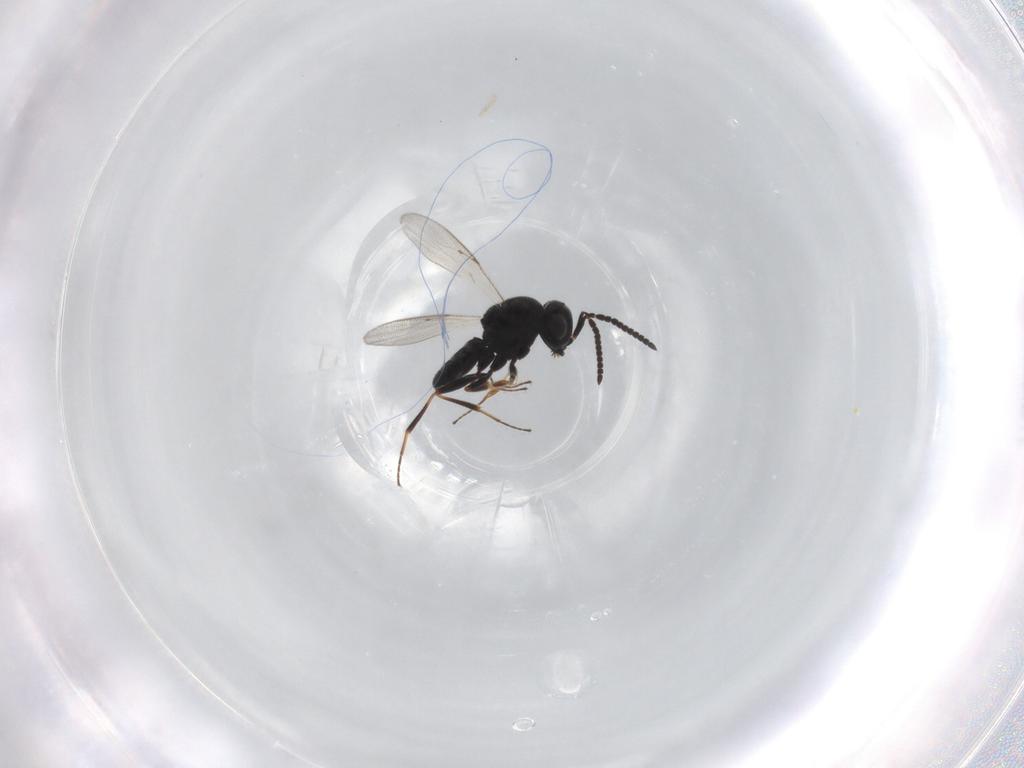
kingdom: Animalia
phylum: Arthropoda
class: Insecta
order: Hymenoptera
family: Scelionidae
